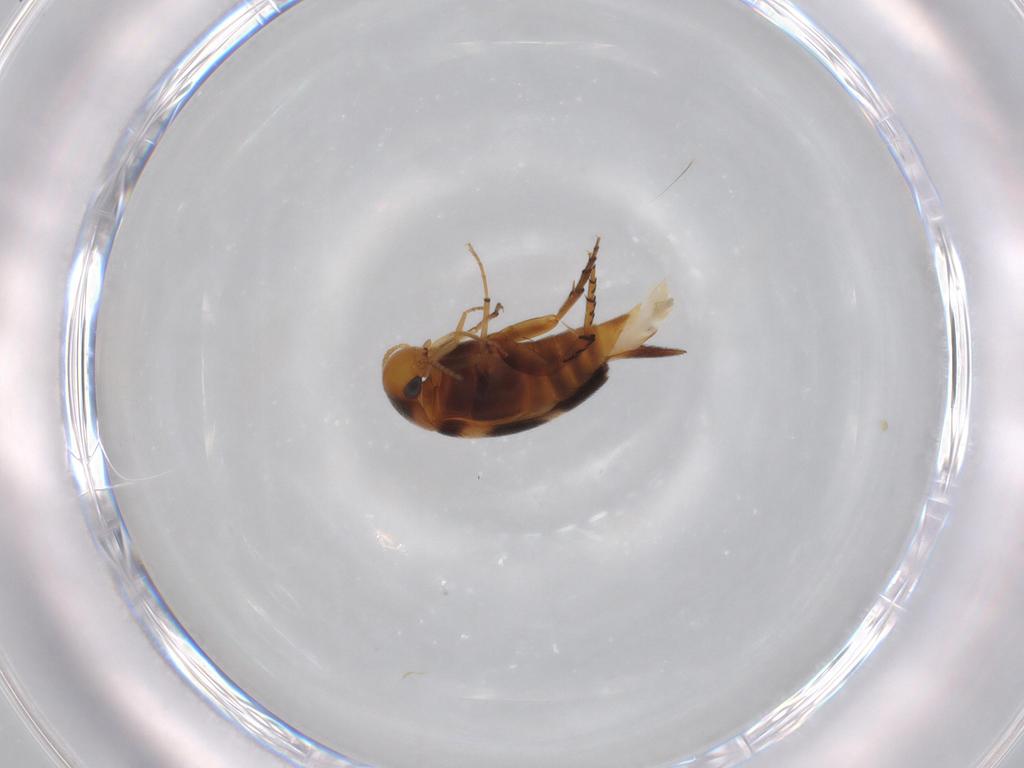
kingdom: Animalia
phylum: Arthropoda
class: Insecta
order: Coleoptera
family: Mordellidae
